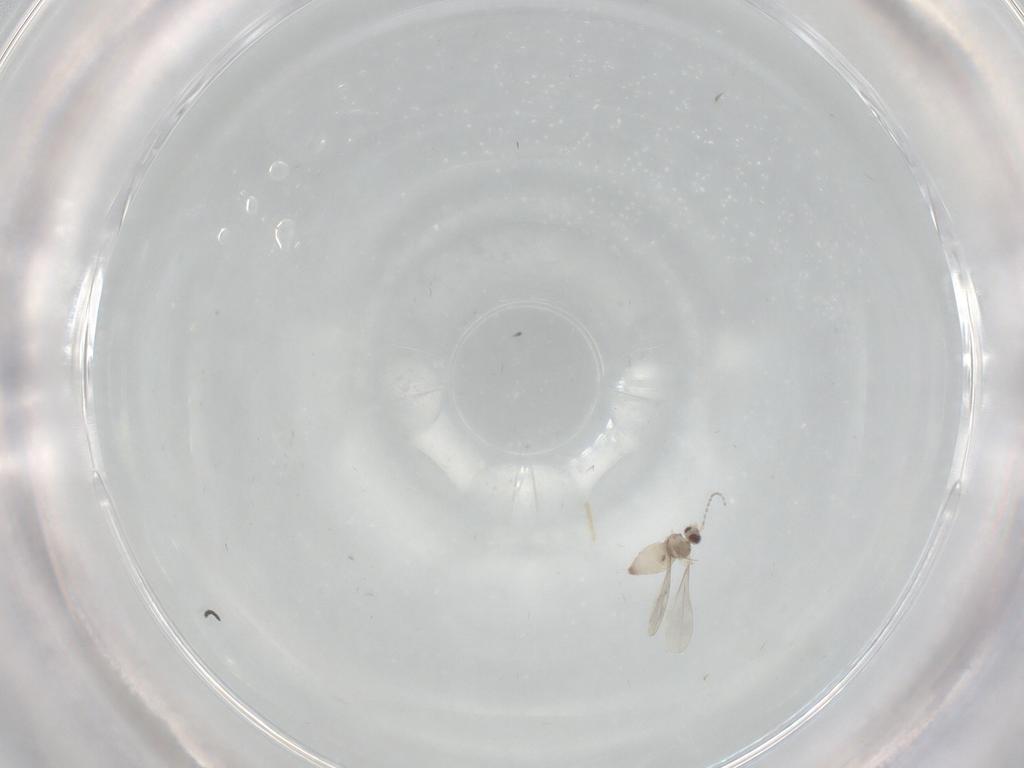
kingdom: Animalia
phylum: Arthropoda
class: Insecta
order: Diptera
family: Cecidomyiidae
